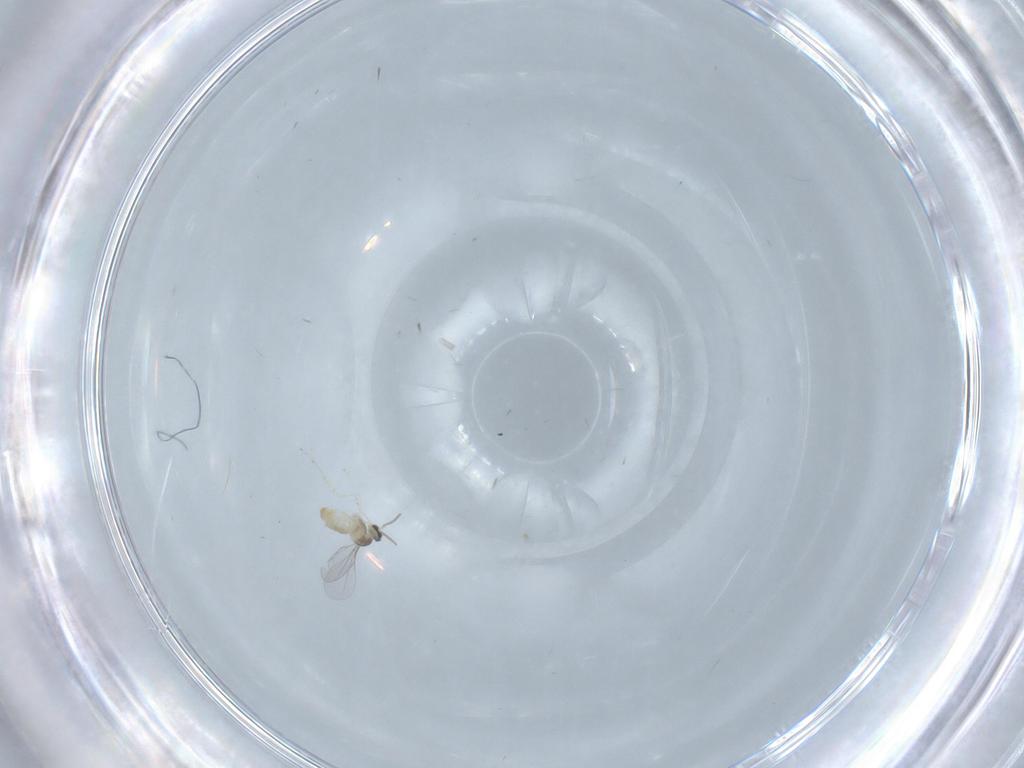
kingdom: Animalia
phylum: Arthropoda
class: Insecta
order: Diptera
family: Cecidomyiidae
